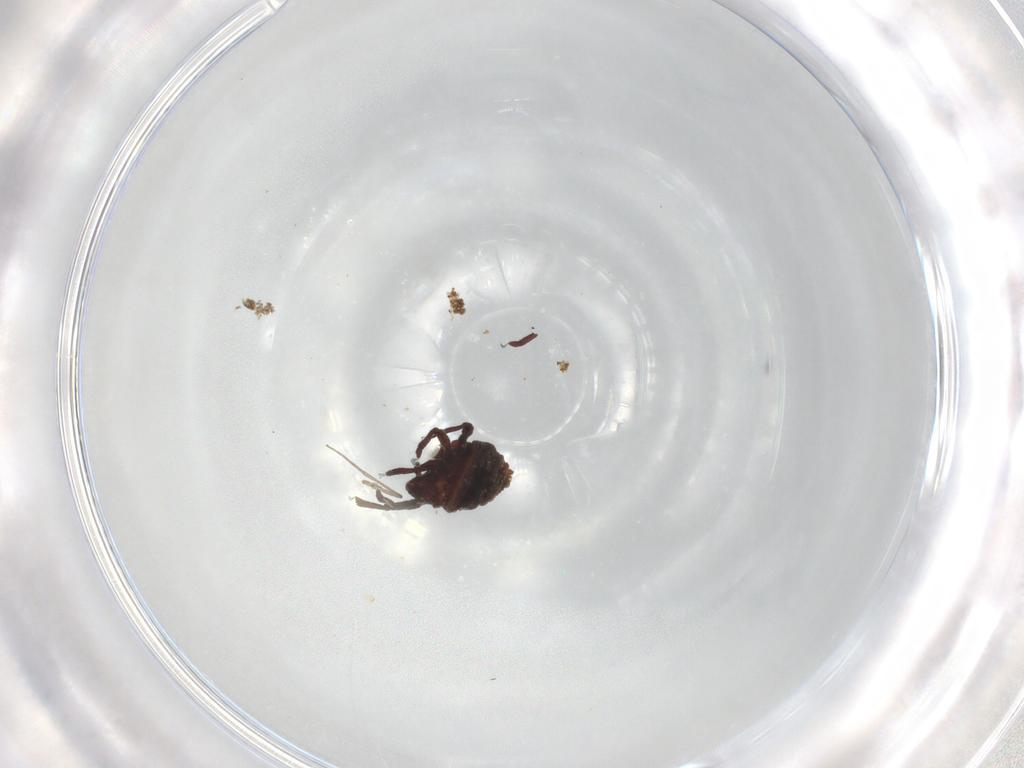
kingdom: Animalia
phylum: Arthropoda
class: Arachnida
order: Sarcoptiformes
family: Neoliodidae
